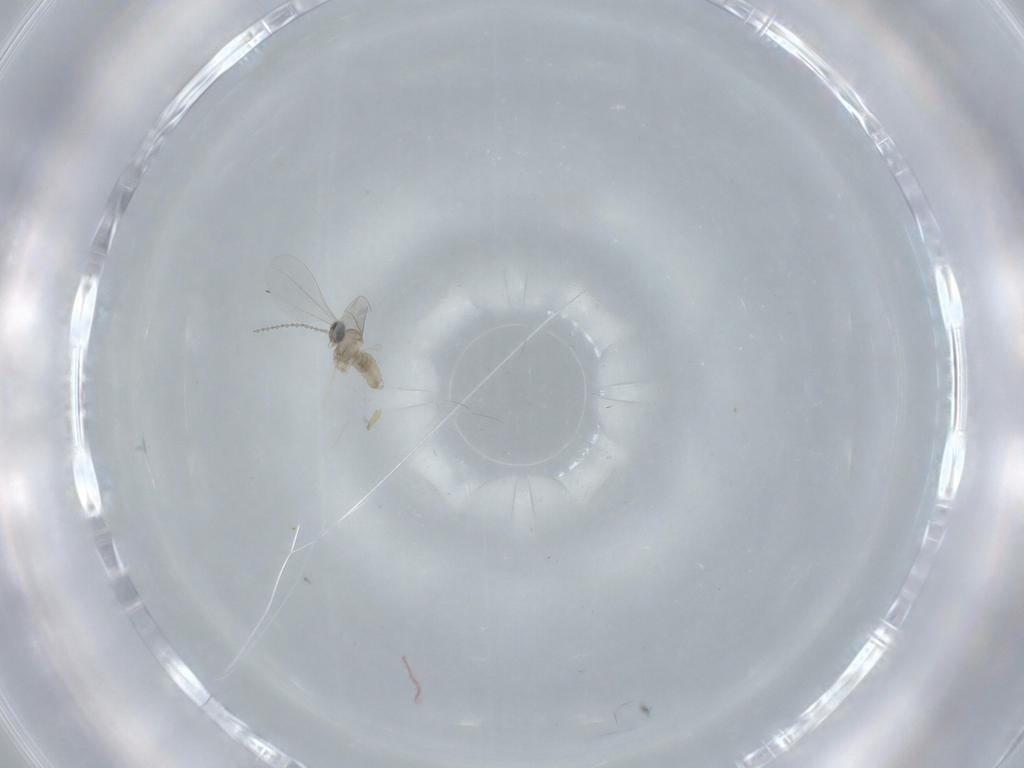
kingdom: Animalia
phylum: Arthropoda
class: Insecta
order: Diptera
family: Cecidomyiidae
